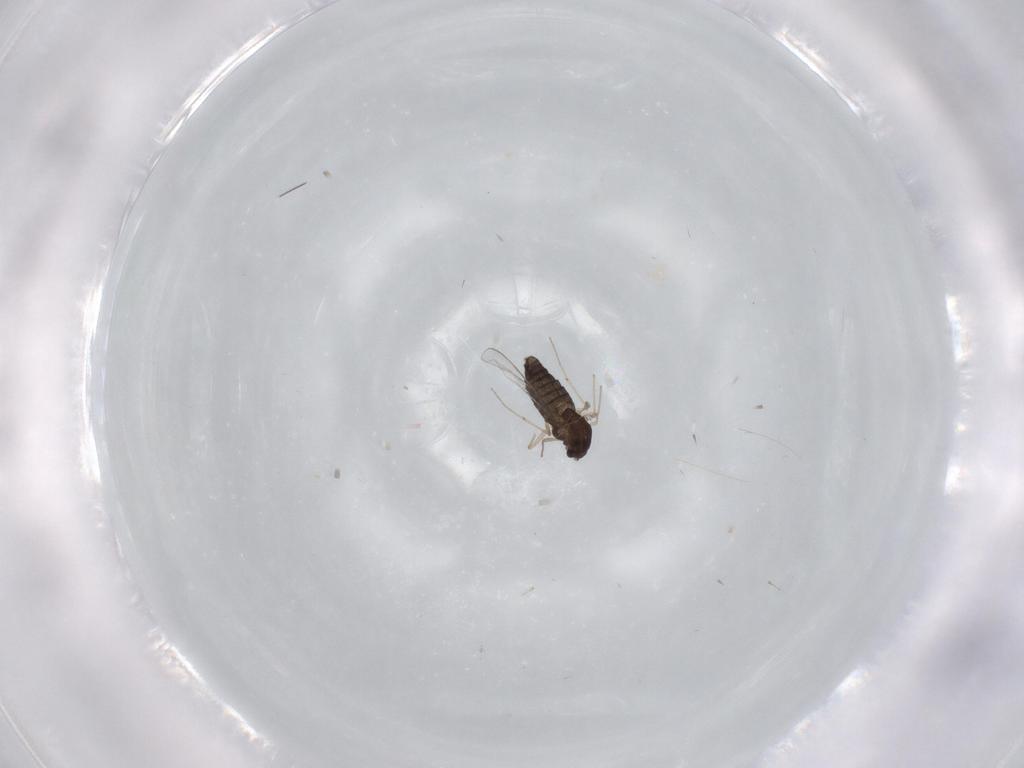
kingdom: Animalia
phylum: Arthropoda
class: Insecta
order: Diptera
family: Chironomidae
